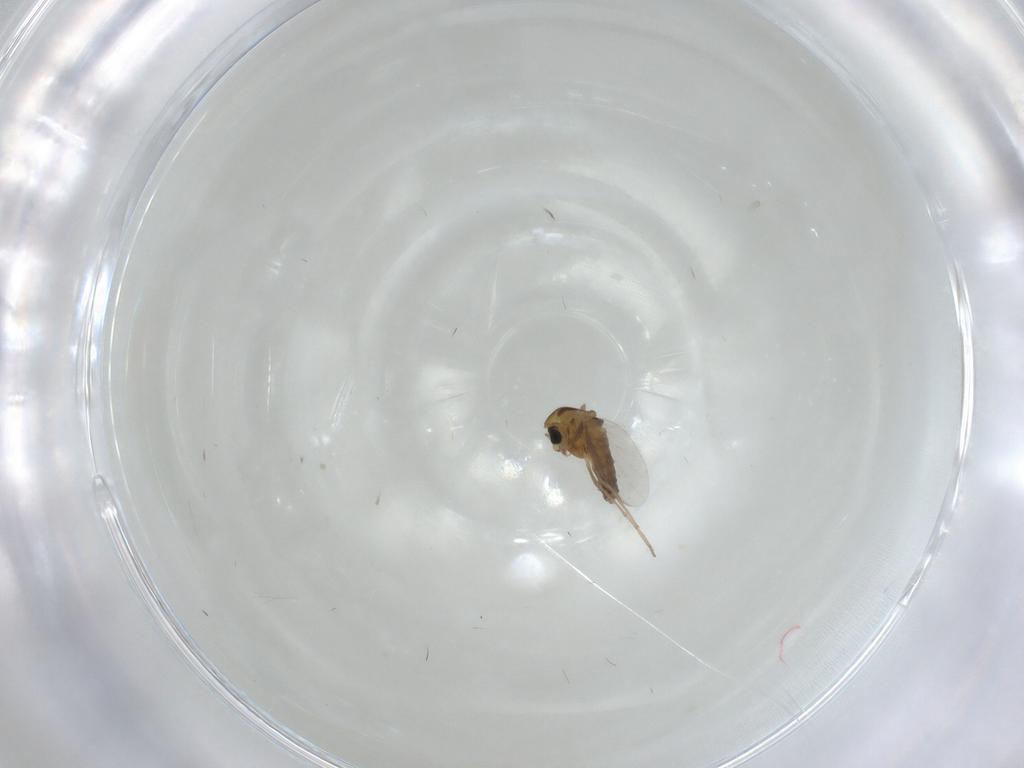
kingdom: Animalia
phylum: Arthropoda
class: Insecta
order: Diptera
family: Chironomidae
